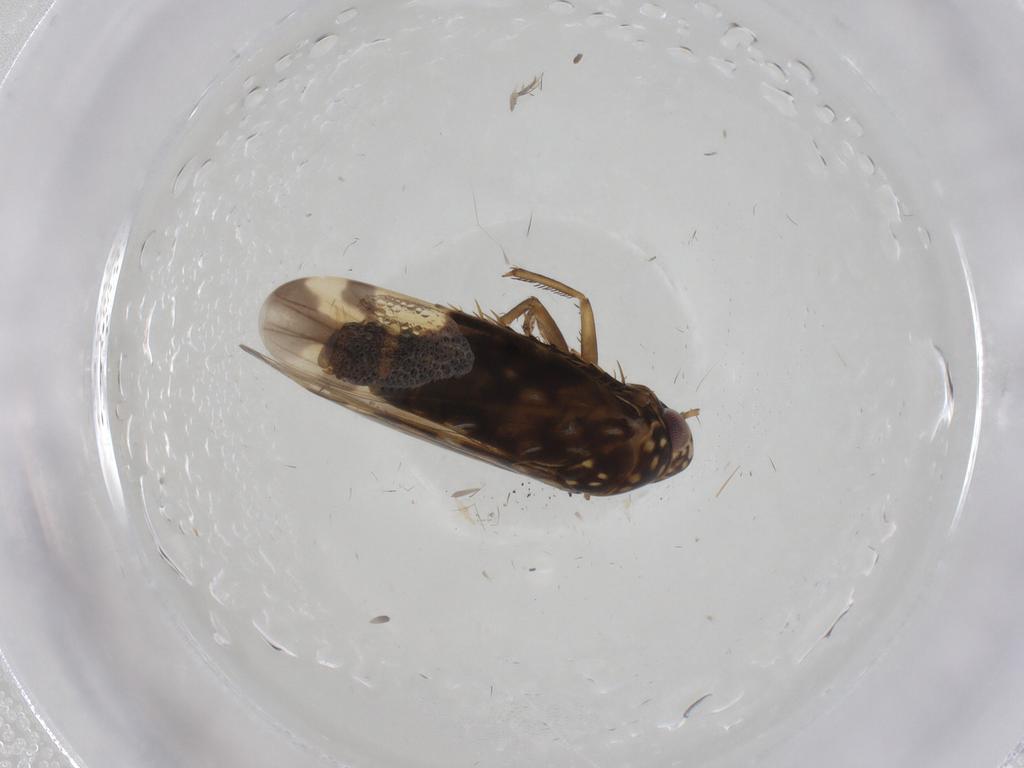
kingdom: Animalia
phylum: Arthropoda
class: Insecta
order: Hemiptera
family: Cicadellidae
